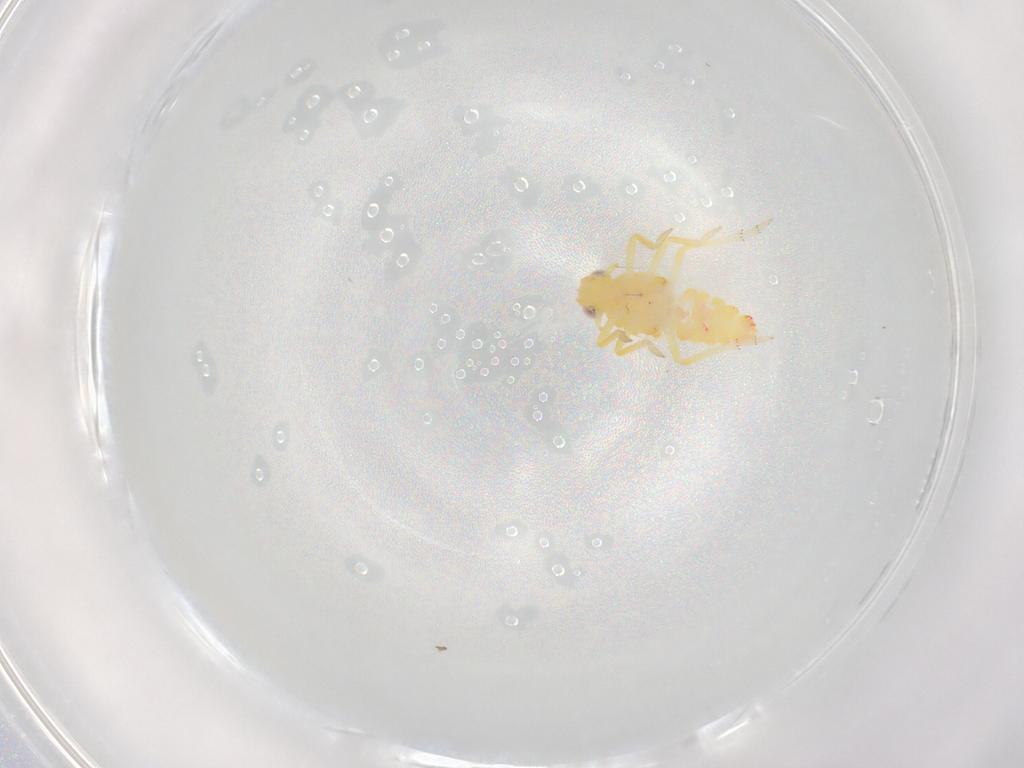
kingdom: Animalia
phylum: Arthropoda
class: Insecta
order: Hemiptera
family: Tropiduchidae
